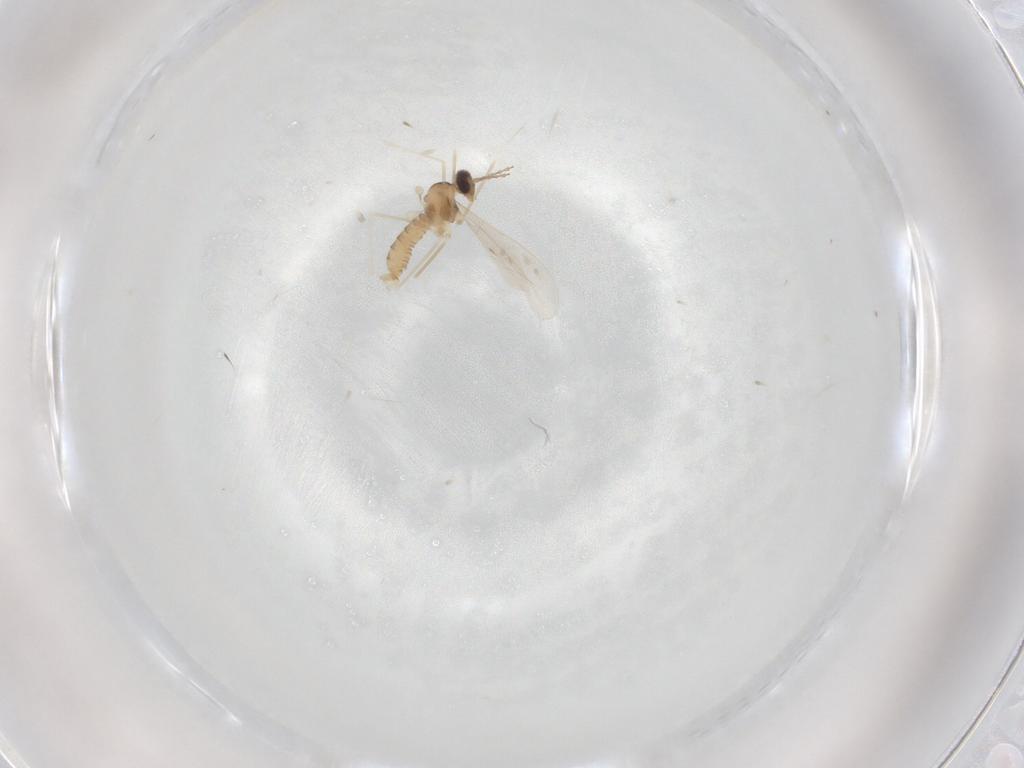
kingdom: Animalia
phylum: Arthropoda
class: Insecta
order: Diptera
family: Cecidomyiidae
